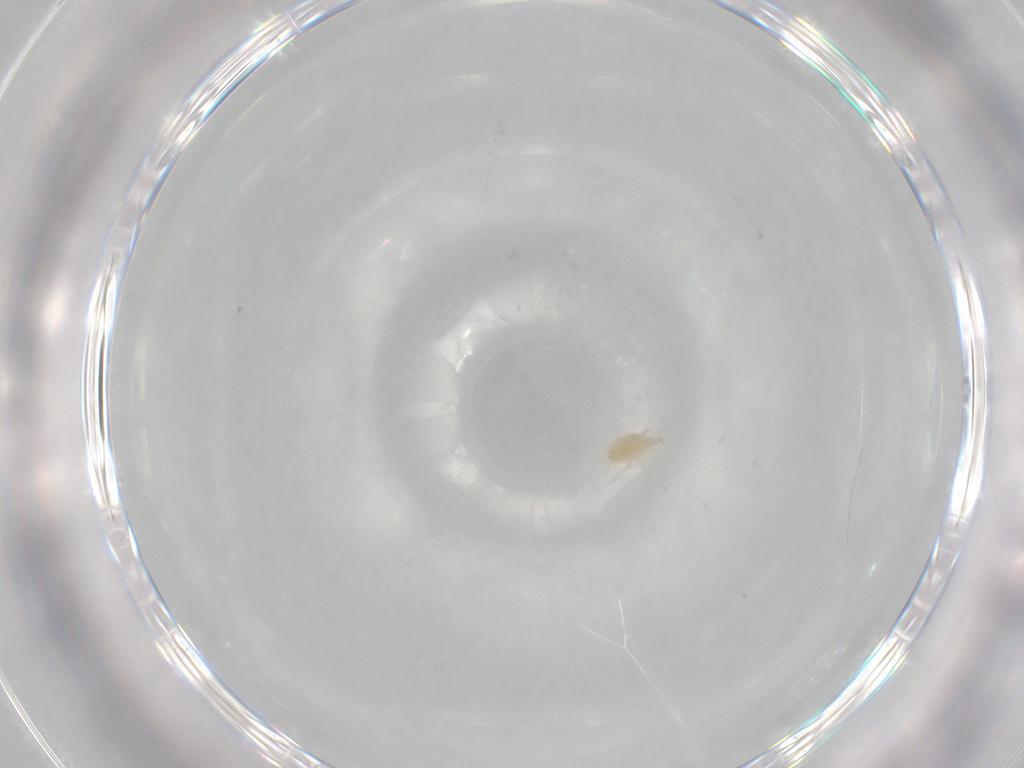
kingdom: Animalia
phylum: Arthropoda
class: Arachnida
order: Mesostigmata
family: Phytoseiidae
